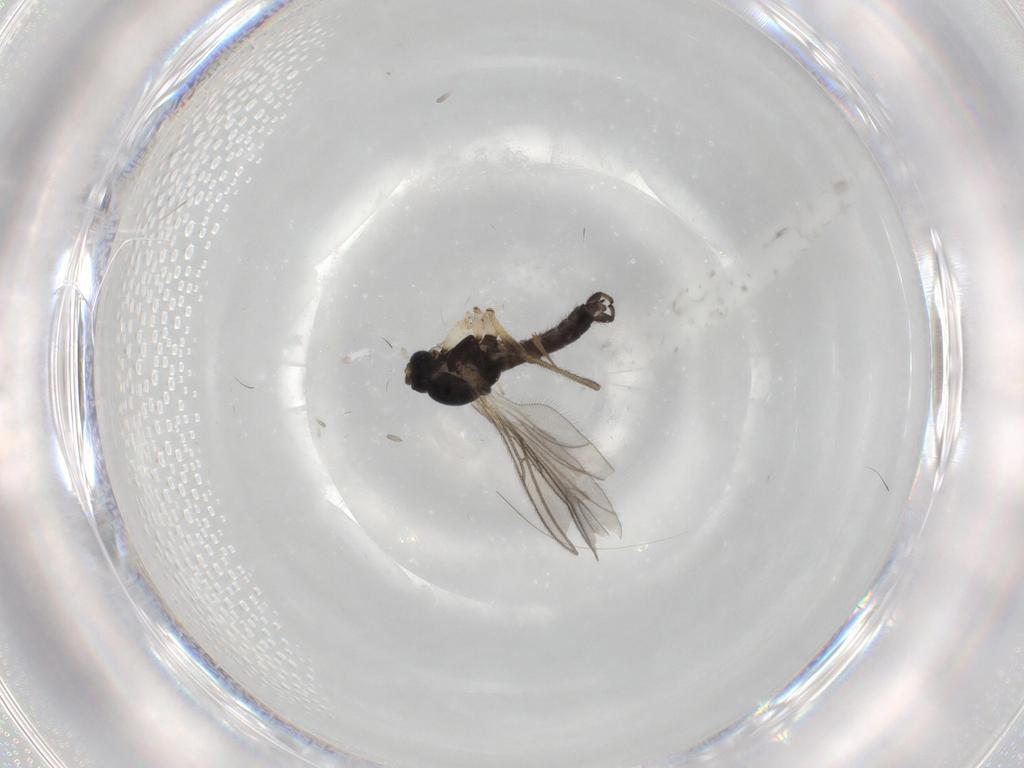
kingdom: Animalia
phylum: Arthropoda
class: Insecta
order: Diptera
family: Sciaridae
